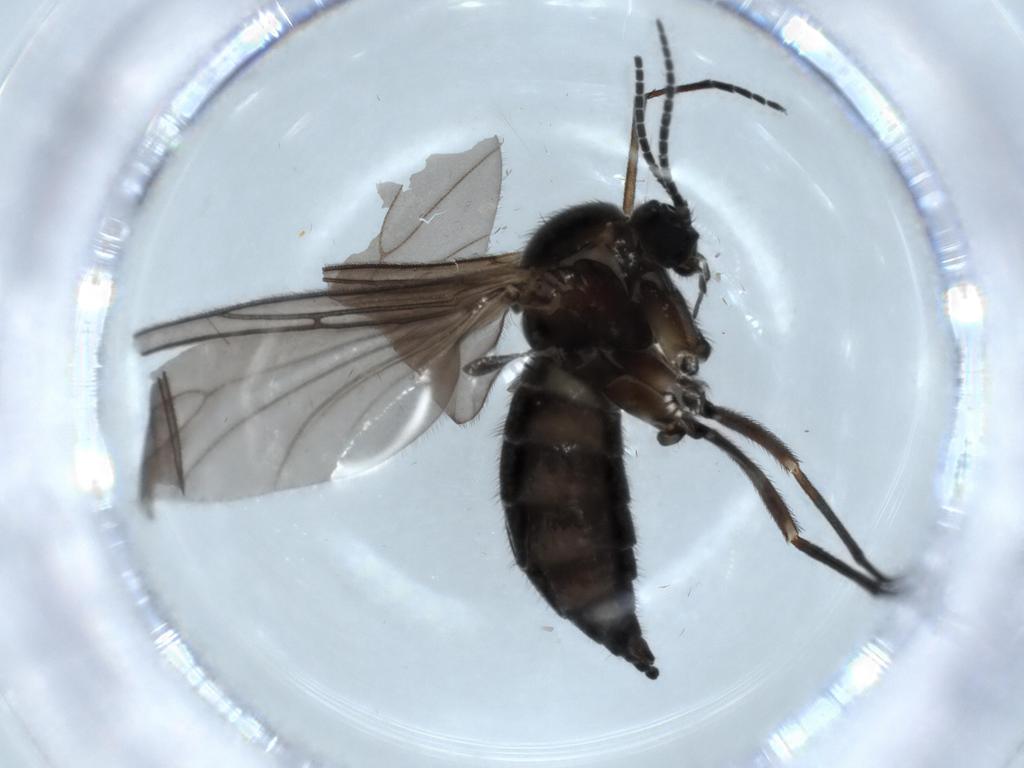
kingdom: Animalia
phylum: Arthropoda
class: Insecta
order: Diptera
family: Sciaridae
